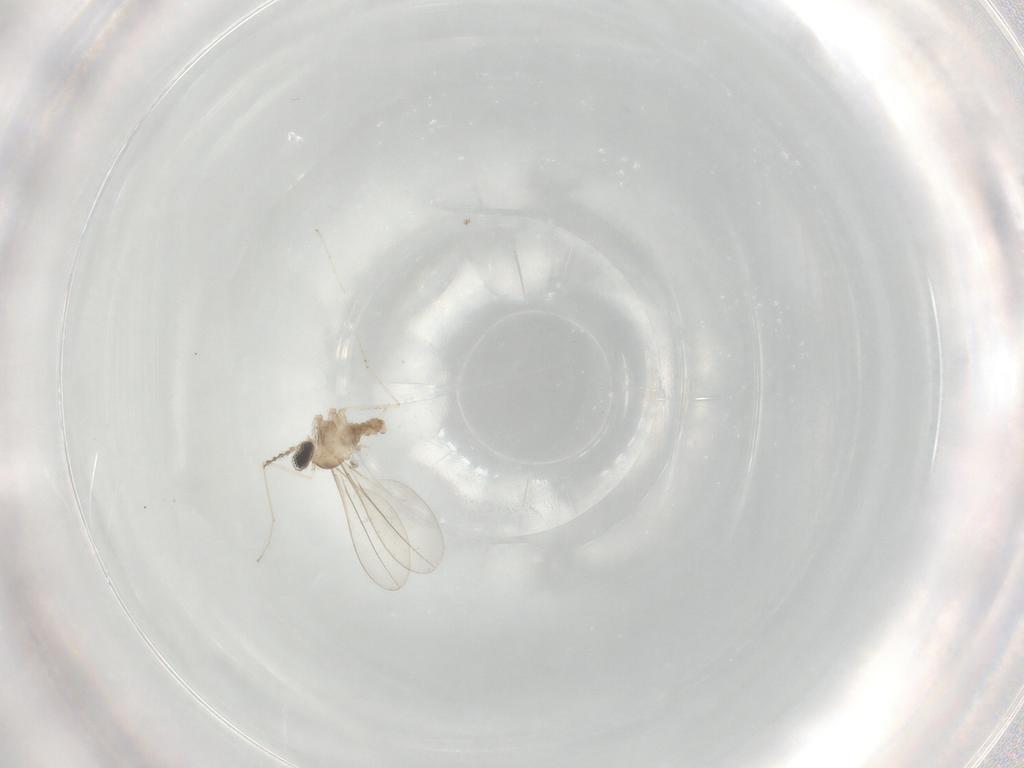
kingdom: Animalia
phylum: Arthropoda
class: Insecta
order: Diptera
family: Cecidomyiidae
